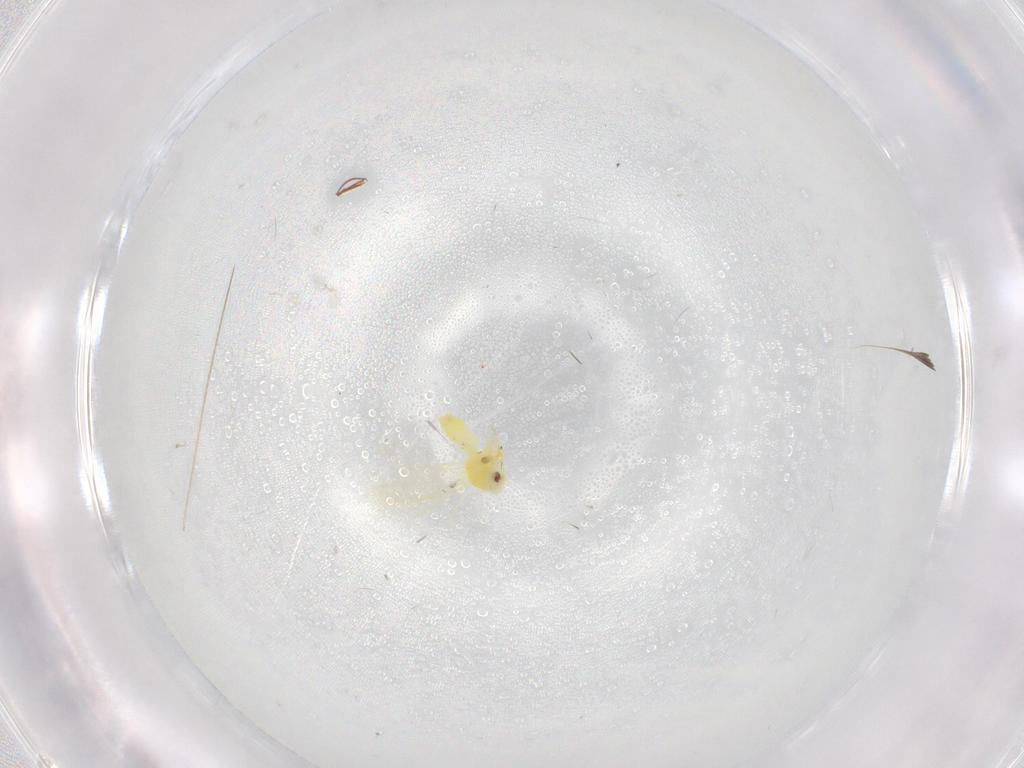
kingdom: Animalia
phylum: Arthropoda
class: Insecta
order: Hemiptera
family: Aleyrodidae
